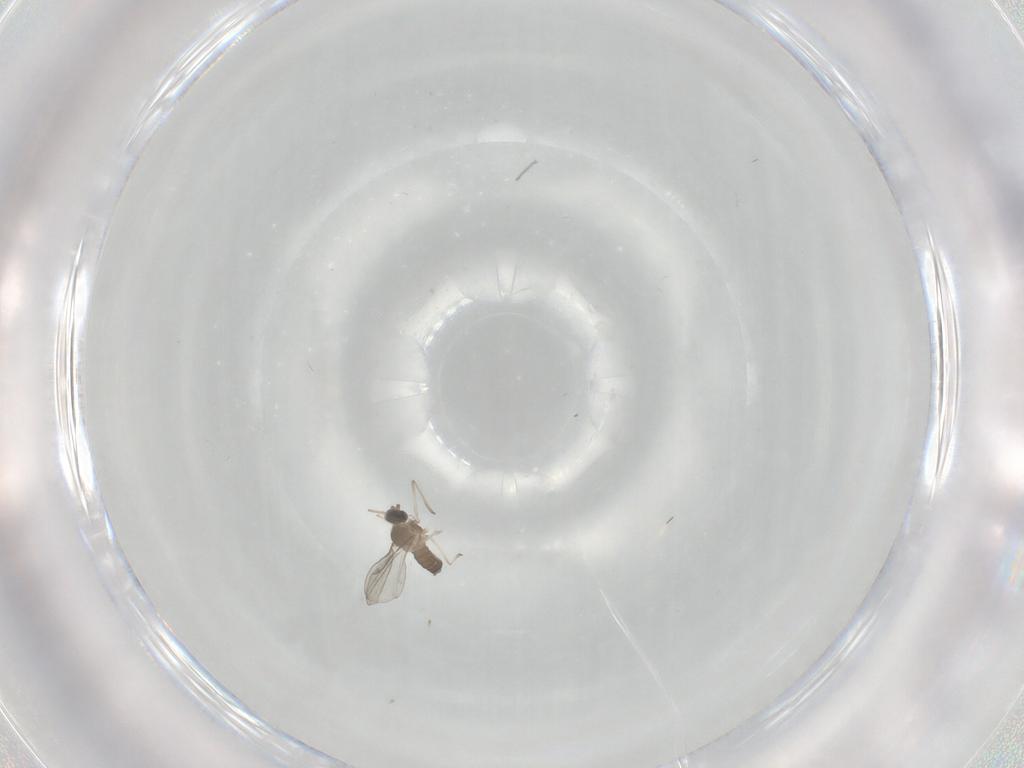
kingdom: Animalia
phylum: Arthropoda
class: Insecta
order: Diptera
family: Cecidomyiidae
